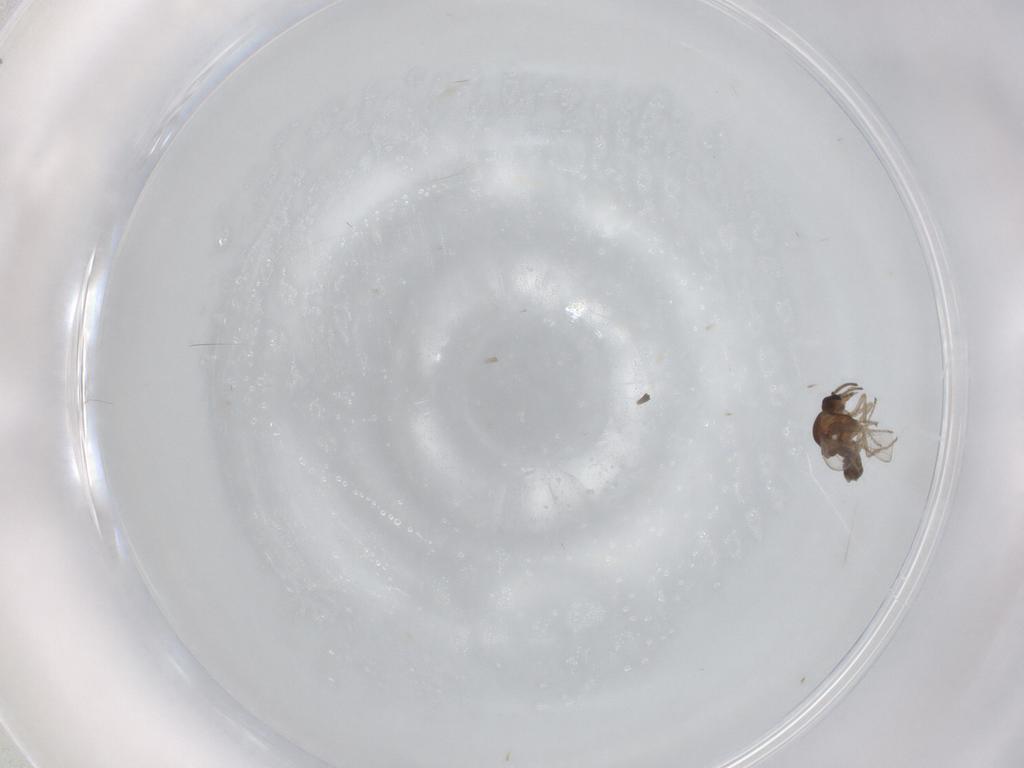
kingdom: Animalia
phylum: Arthropoda
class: Insecta
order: Diptera
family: Ceratopogonidae
